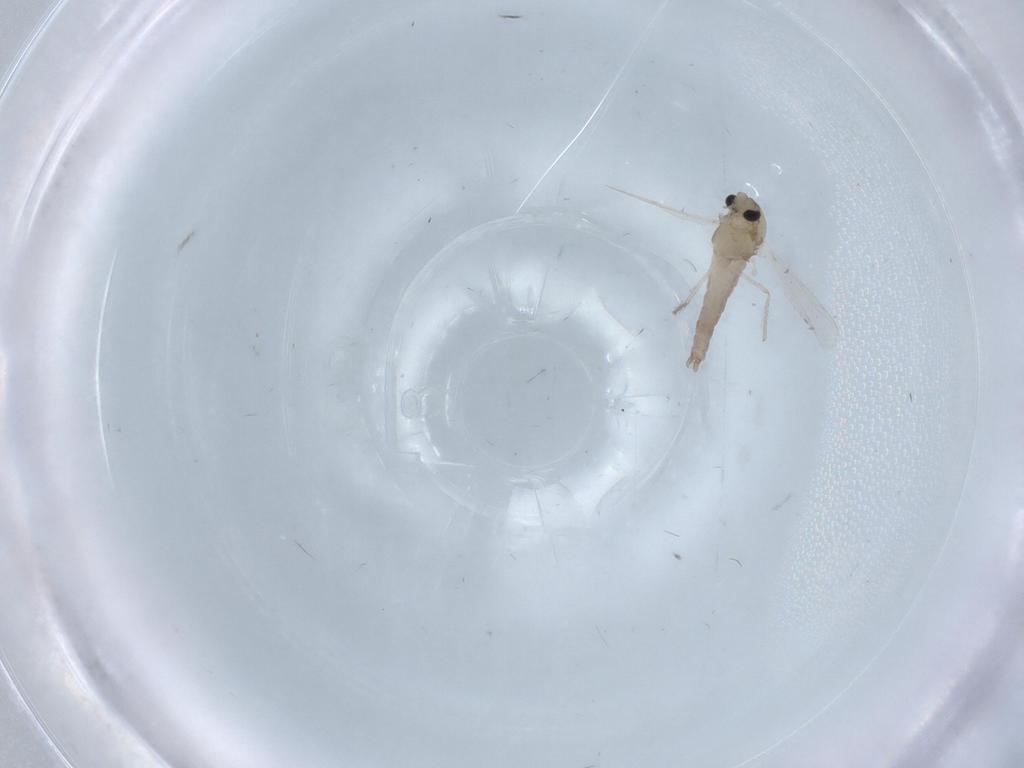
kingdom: Animalia
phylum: Arthropoda
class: Insecta
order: Diptera
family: Chironomidae
